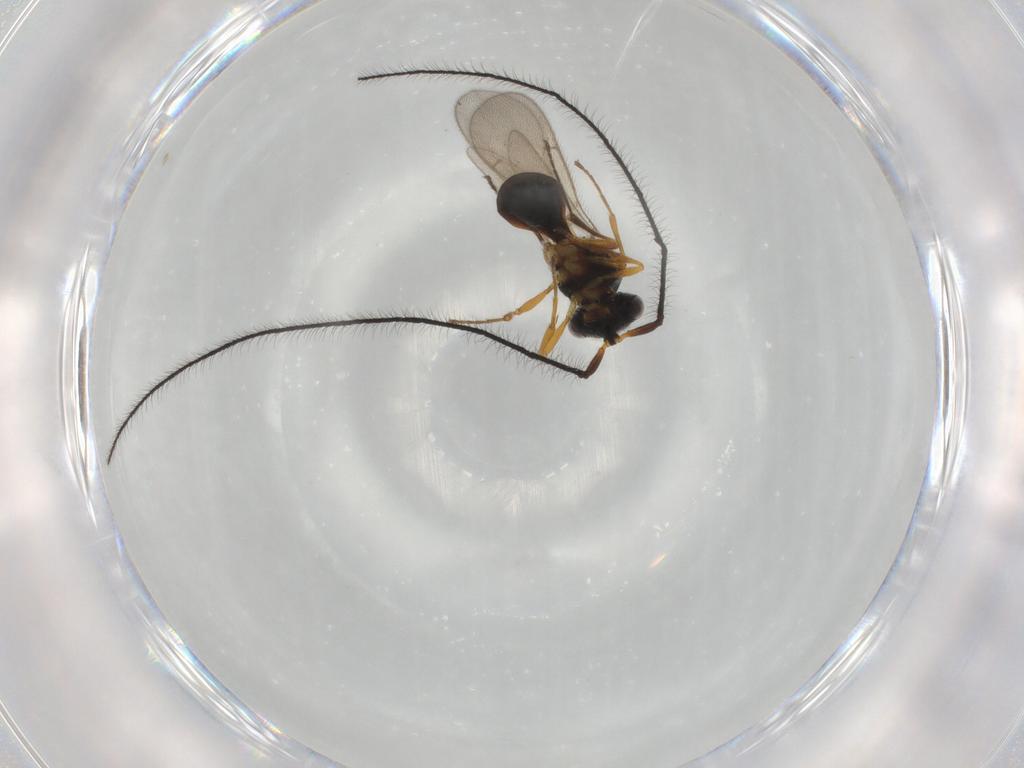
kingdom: Animalia
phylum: Arthropoda
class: Insecta
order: Hymenoptera
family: Scelionidae
